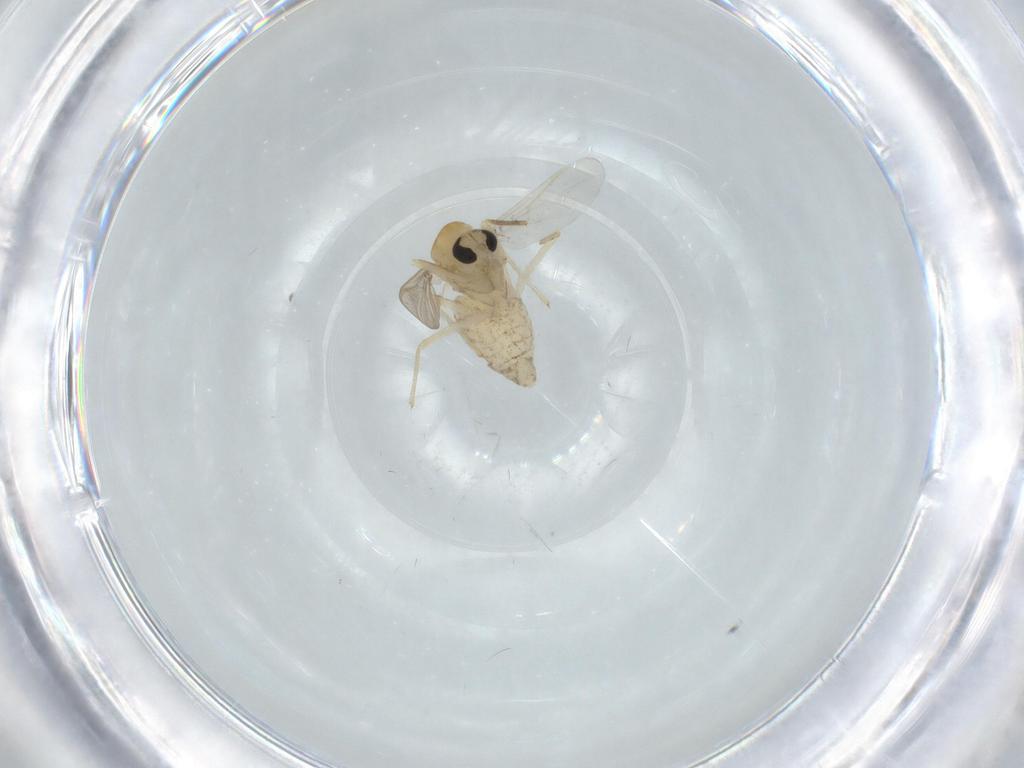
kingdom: Animalia
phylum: Arthropoda
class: Insecta
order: Diptera
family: Chironomidae
